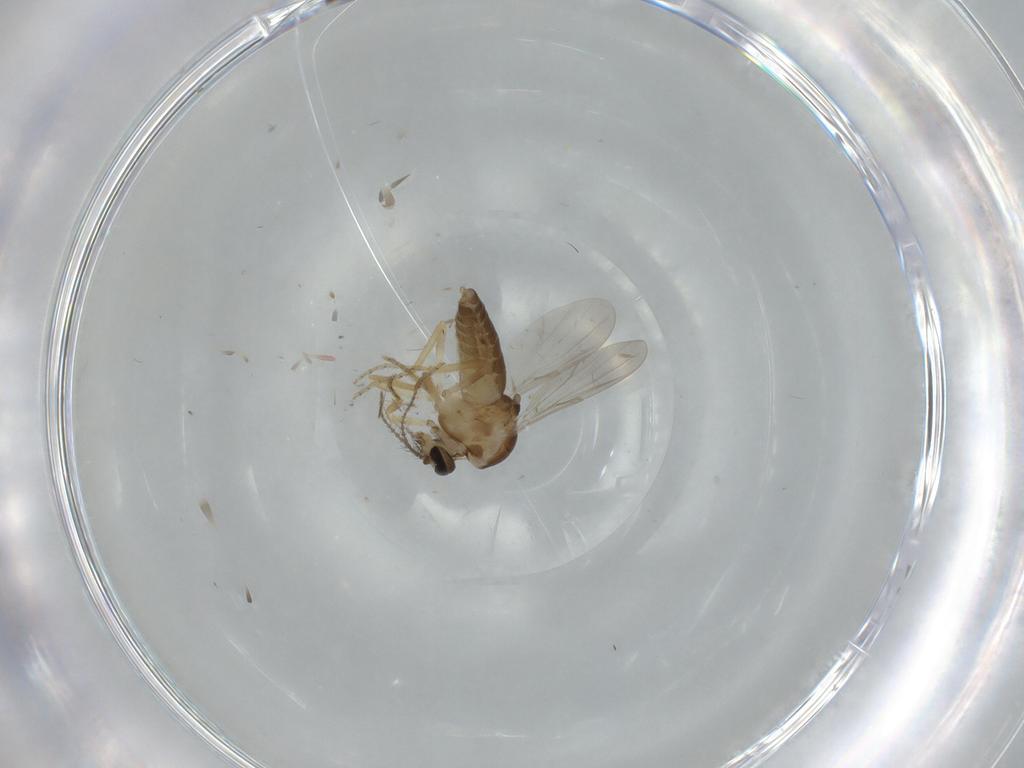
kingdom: Animalia
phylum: Arthropoda
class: Insecta
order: Diptera
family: Ceratopogonidae
